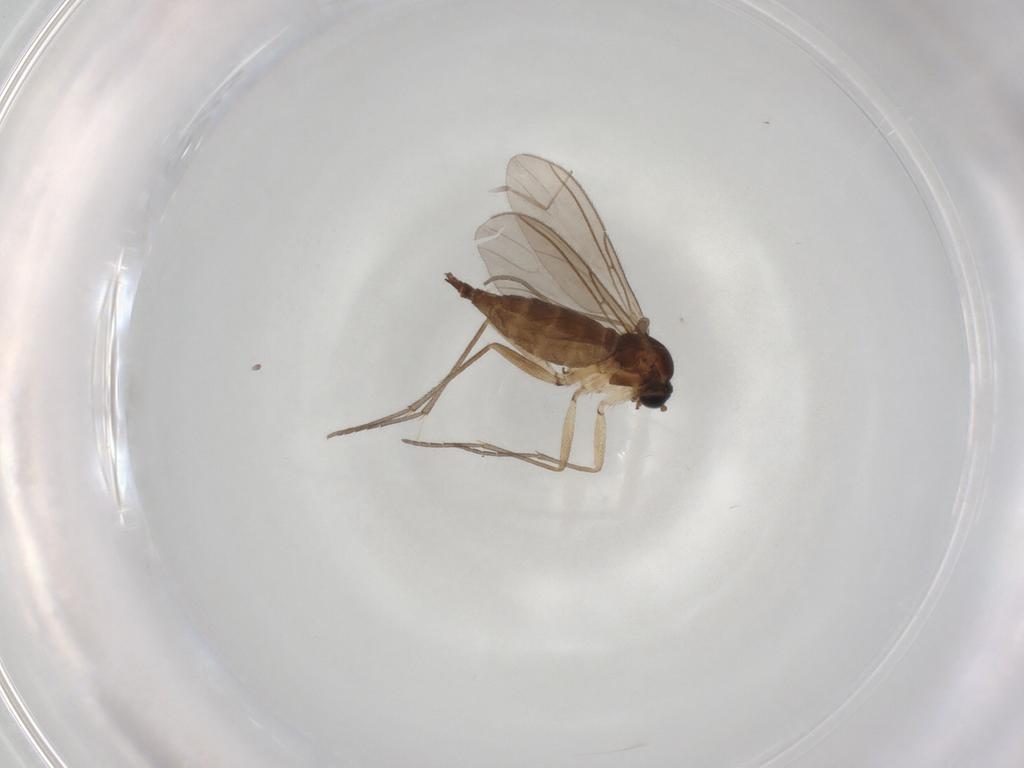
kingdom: Animalia
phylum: Arthropoda
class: Insecta
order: Diptera
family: Sciaridae
